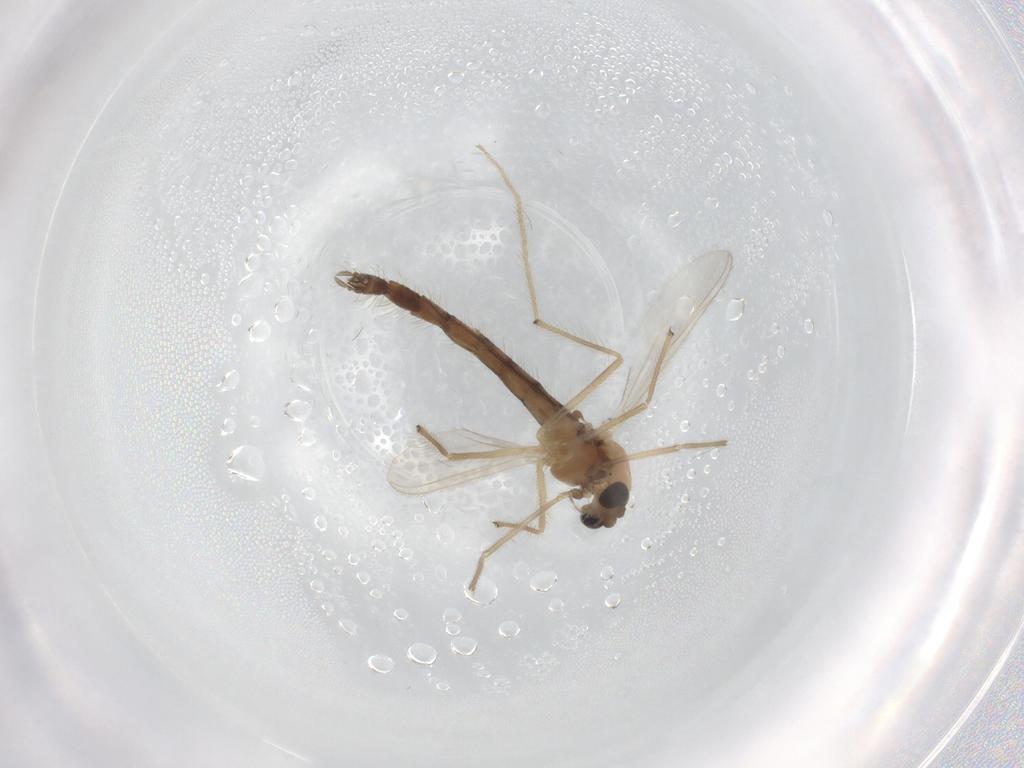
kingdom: Animalia
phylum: Arthropoda
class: Insecta
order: Diptera
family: Chironomidae
